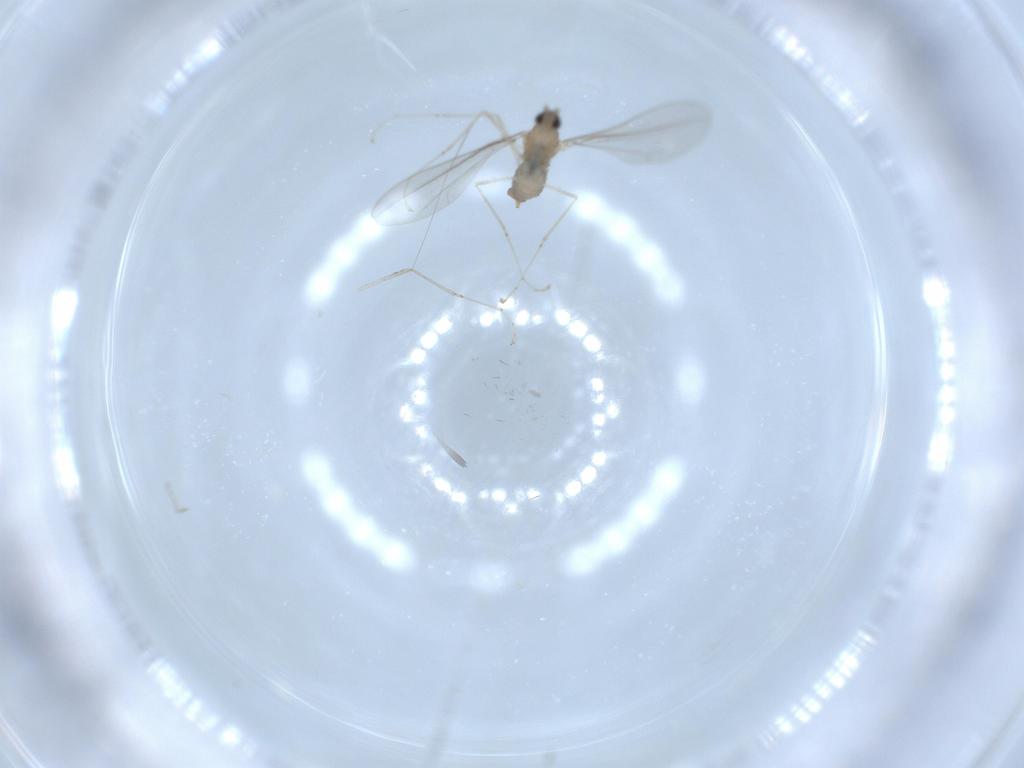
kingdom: Animalia
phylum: Arthropoda
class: Insecta
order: Diptera
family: Cecidomyiidae
